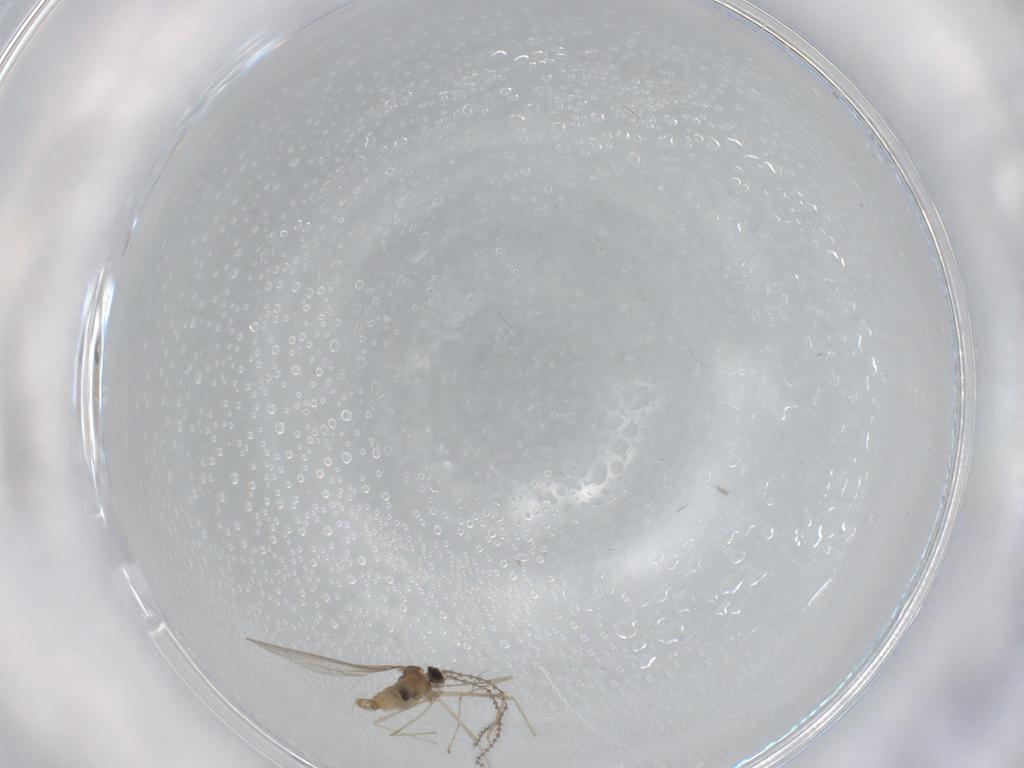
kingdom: Animalia
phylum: Arthropoda
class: Insecta
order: Diptera
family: Cecidomyiidae
